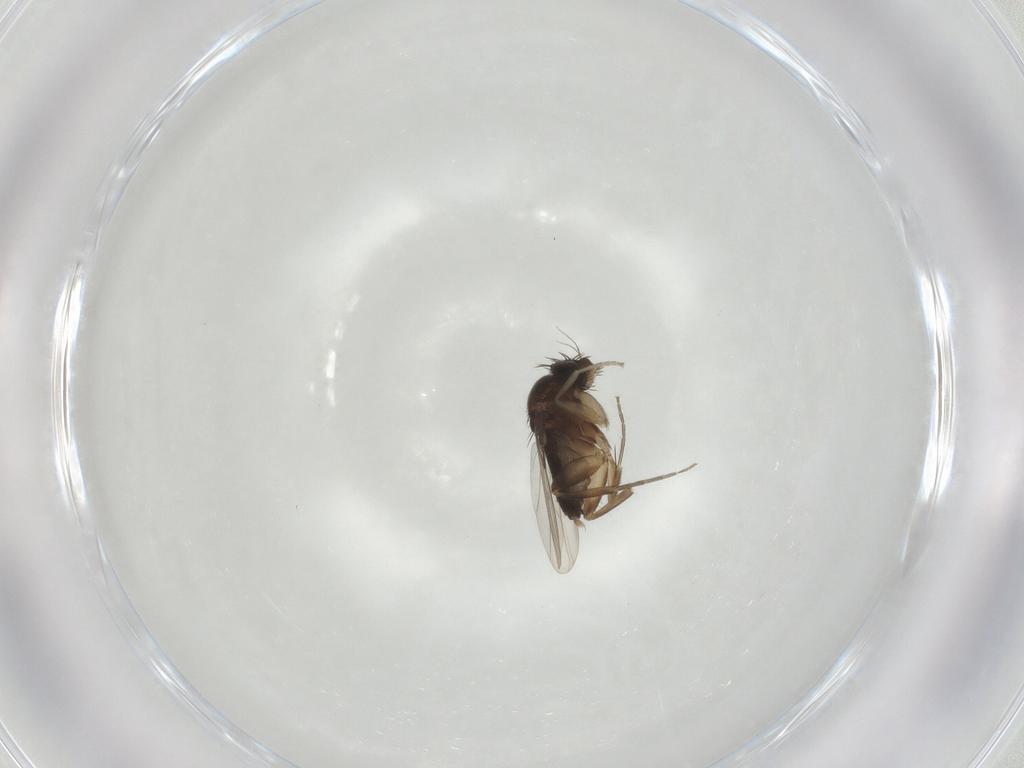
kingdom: Animalia
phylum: Arthropoda
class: Insecta
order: Diptera
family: Phoridae
